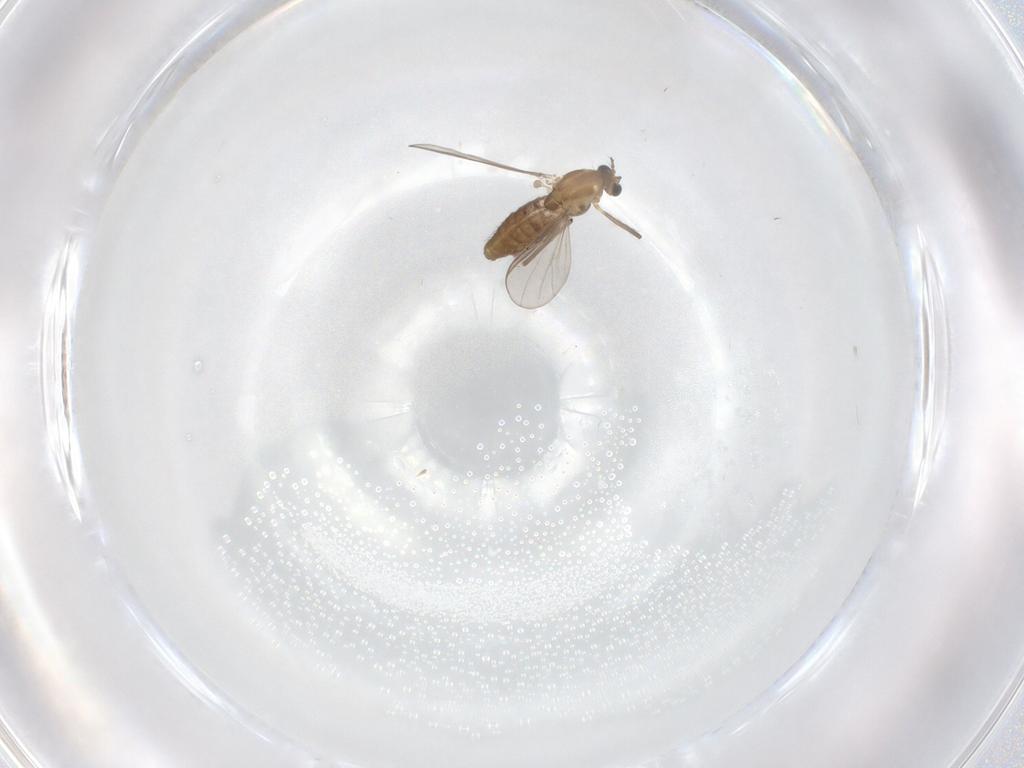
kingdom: Animalia
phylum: Arthropoda
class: Insecta
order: Diptera
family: Chironomidae
